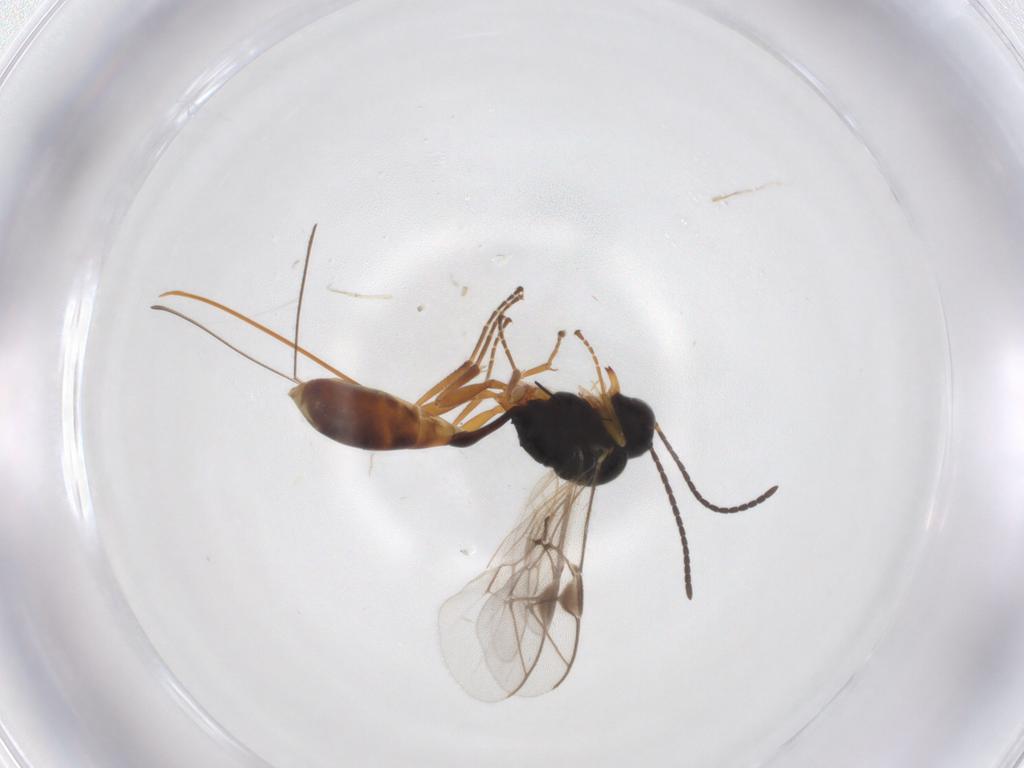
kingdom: Animalia
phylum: Arthropoda
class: Insecta
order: Hymenoptera
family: Ichneumonidae
